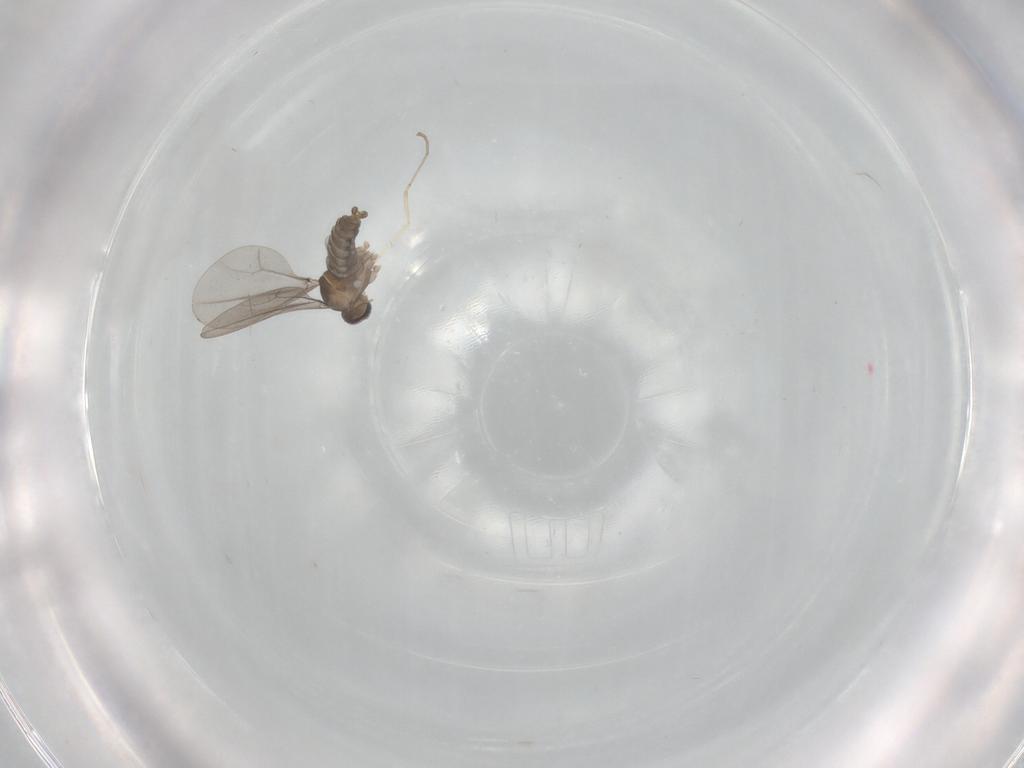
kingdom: Animalia
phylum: Arthropoda
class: Insecta
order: Diptera
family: Cecidomyiidae
